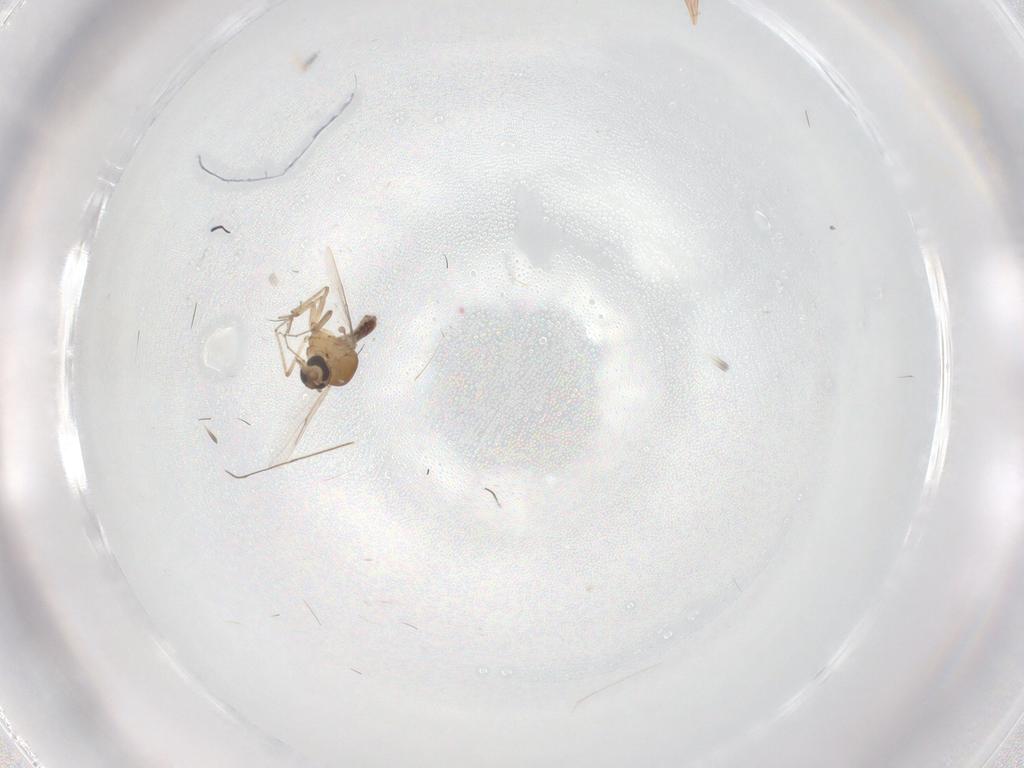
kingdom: Animalia
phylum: Arthropoda
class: Insecta
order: Diptera
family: Ceratopogonidae
